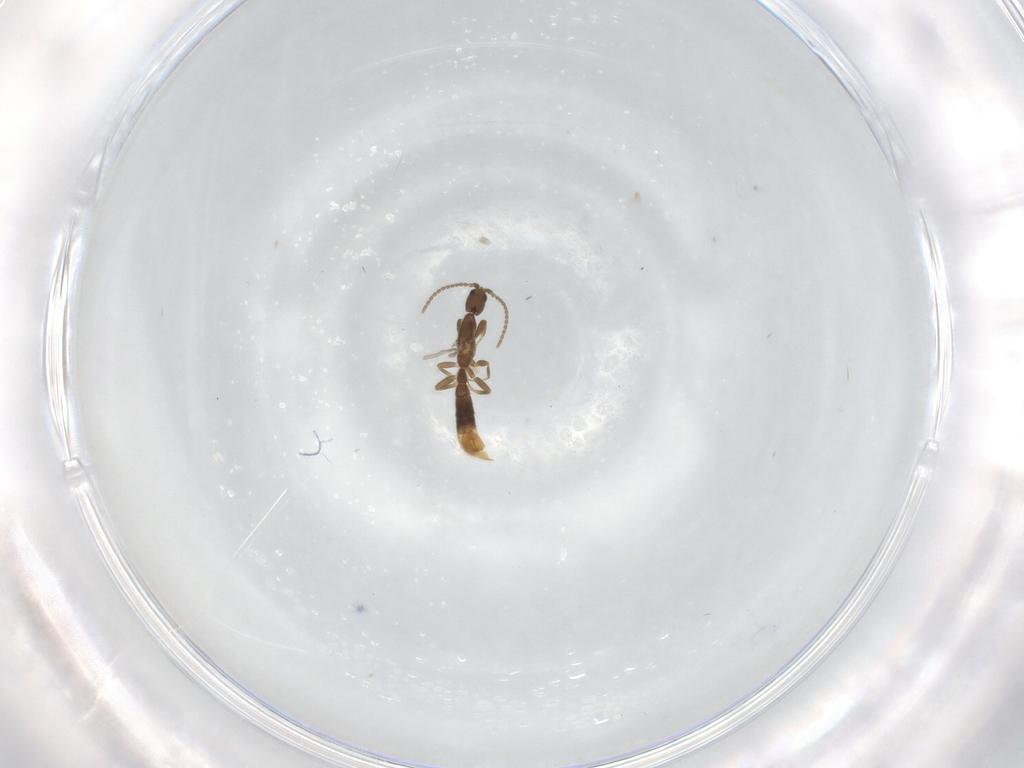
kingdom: Animalia
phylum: Arthropoda
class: Insecta
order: Hymenoptera
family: Formicidae
